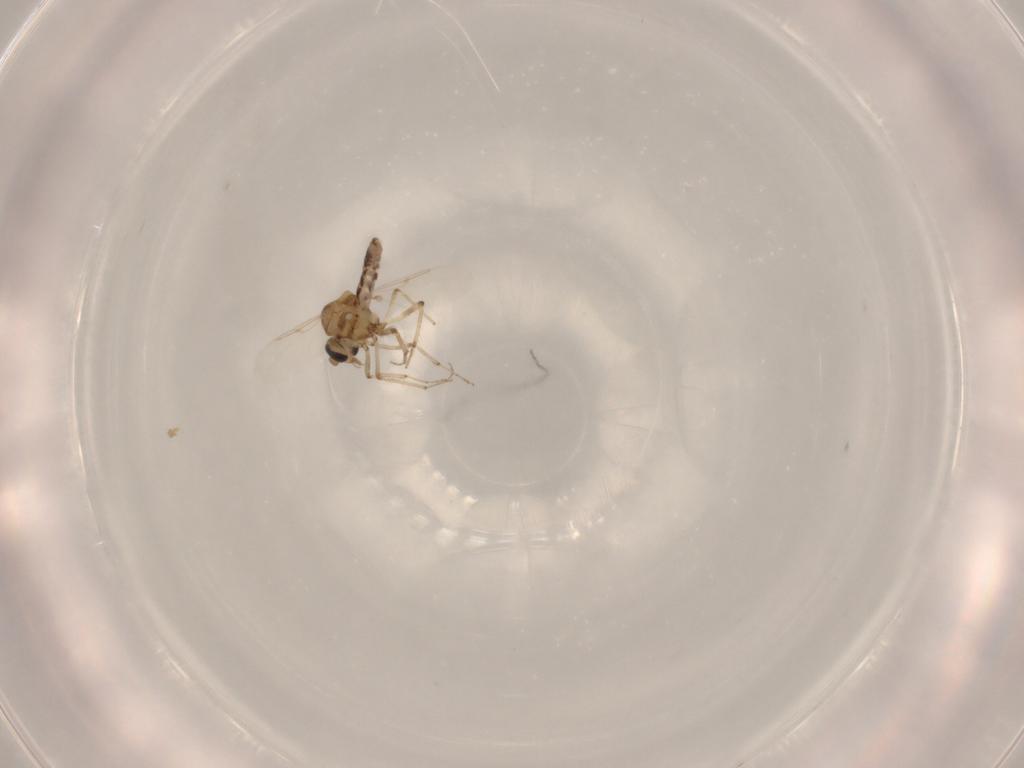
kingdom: Animalia
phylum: Arthropoda
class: Insecta
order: Diptera
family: Ceratopogonidae
